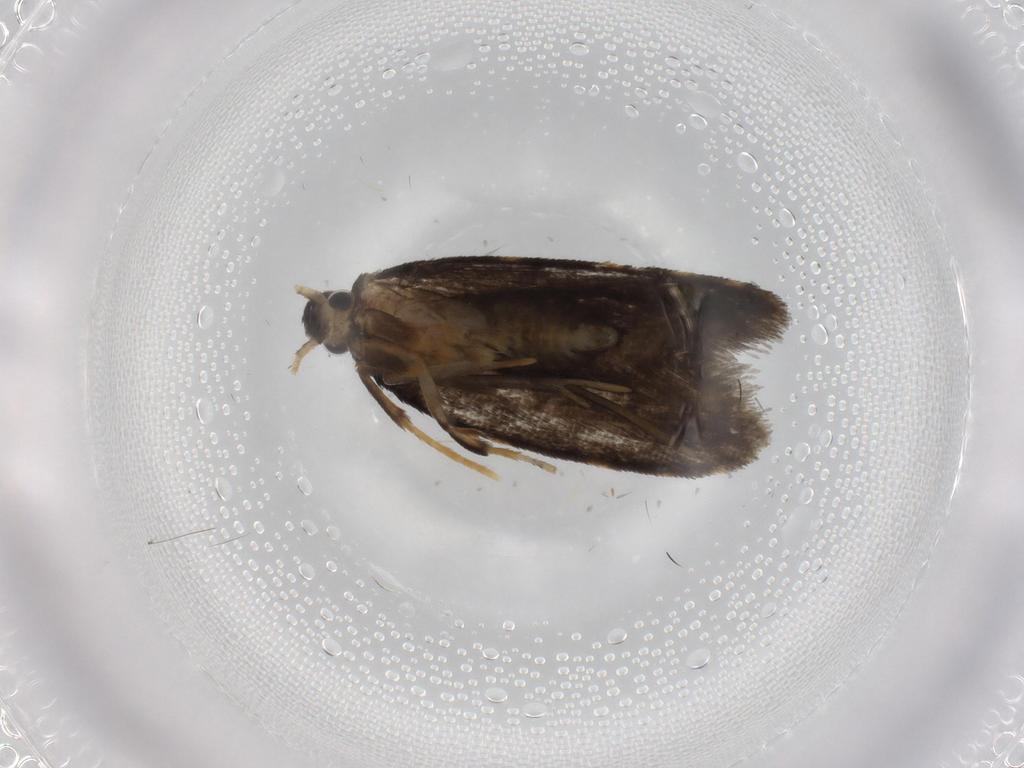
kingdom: Animalia
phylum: Arthropoda
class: Insecta
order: Lepidoptera
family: Psychidae
